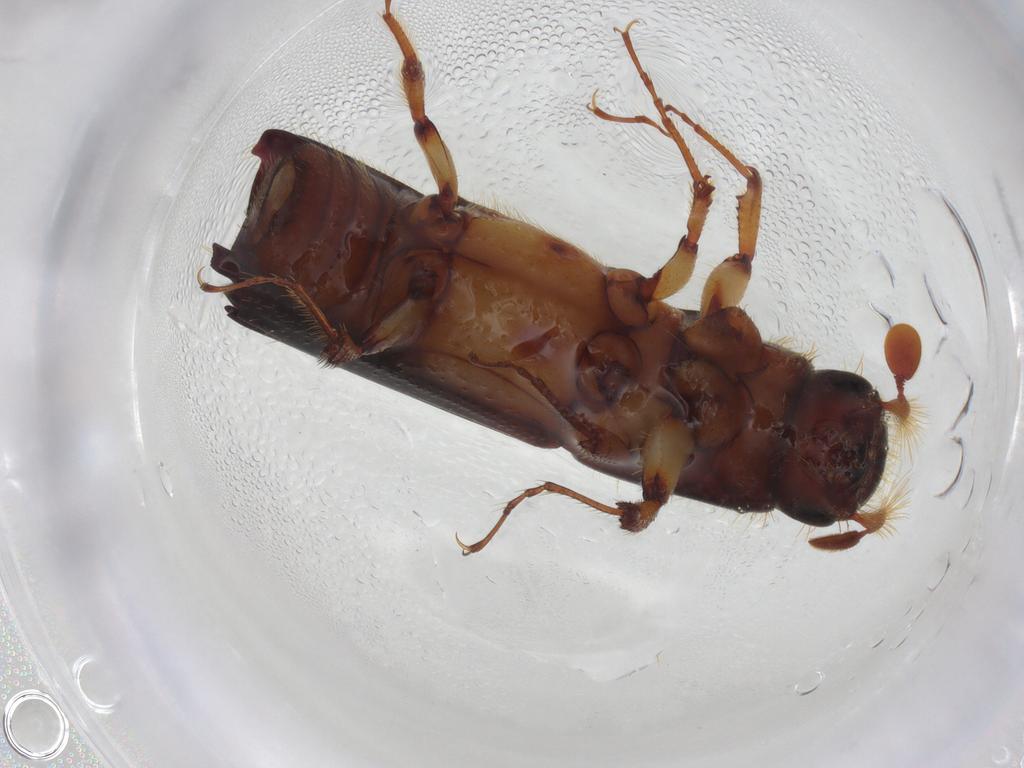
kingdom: Animalia
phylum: Arthropoda
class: Insecta
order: Coleoptera
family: Curculionidae
